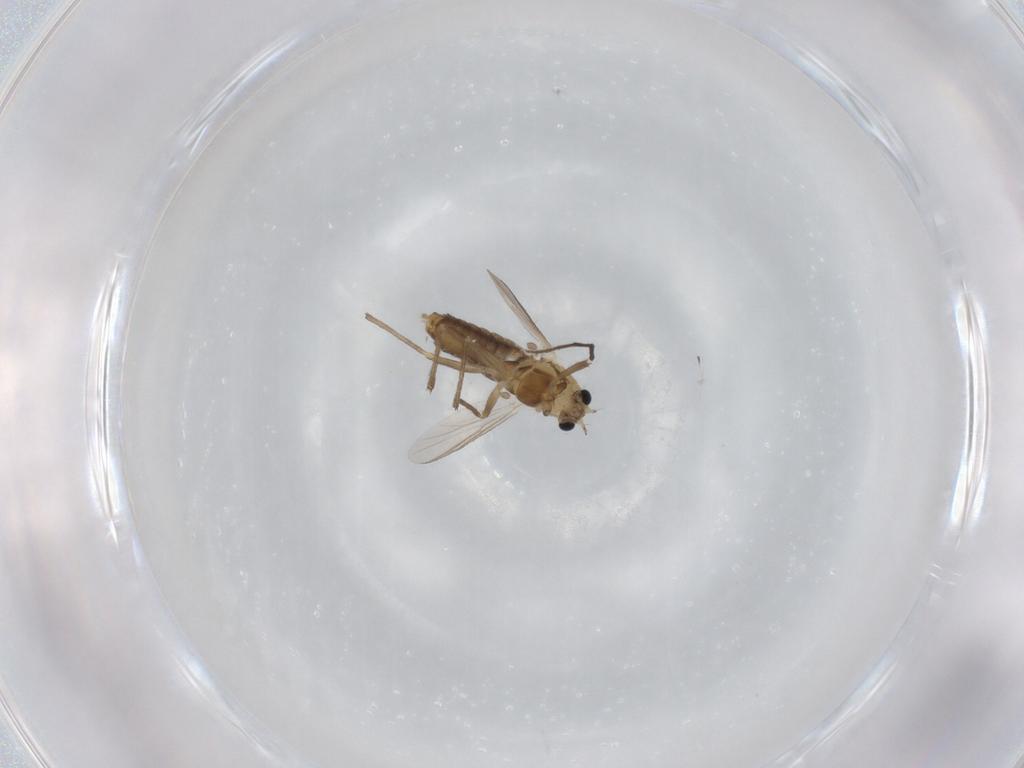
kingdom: Animalia
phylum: Arthropoda
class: Insecta
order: Diptera
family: Chironomidae
